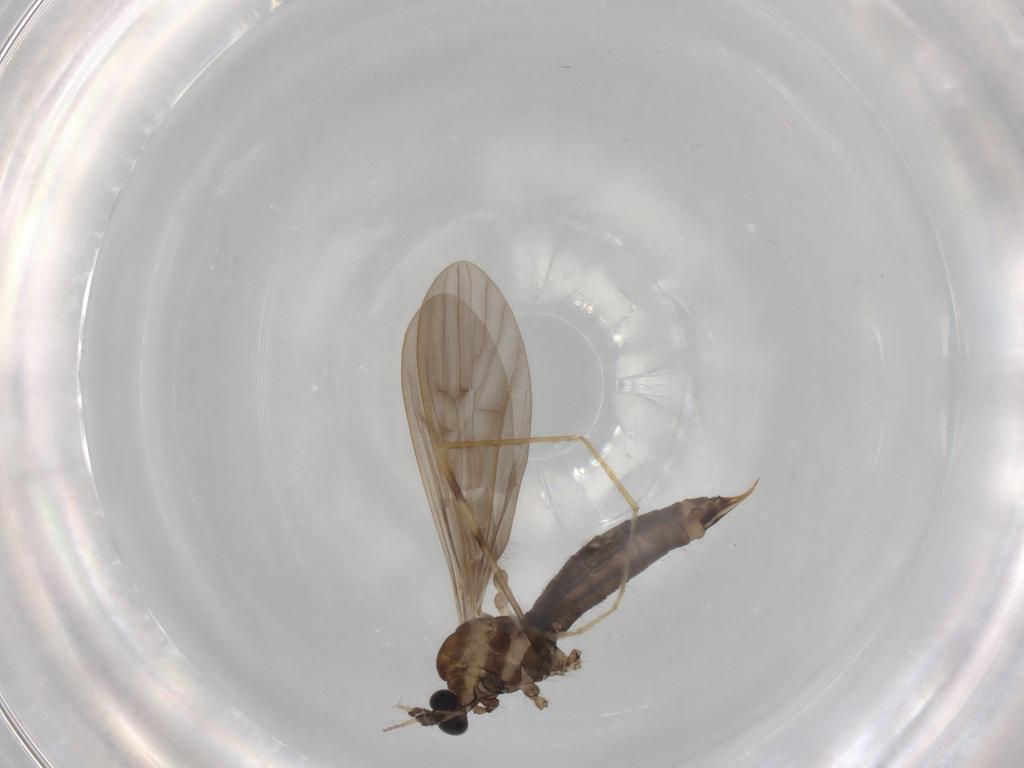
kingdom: Animalia
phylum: Arthropoda
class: Insecta
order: Diptera
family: Limoniidae
